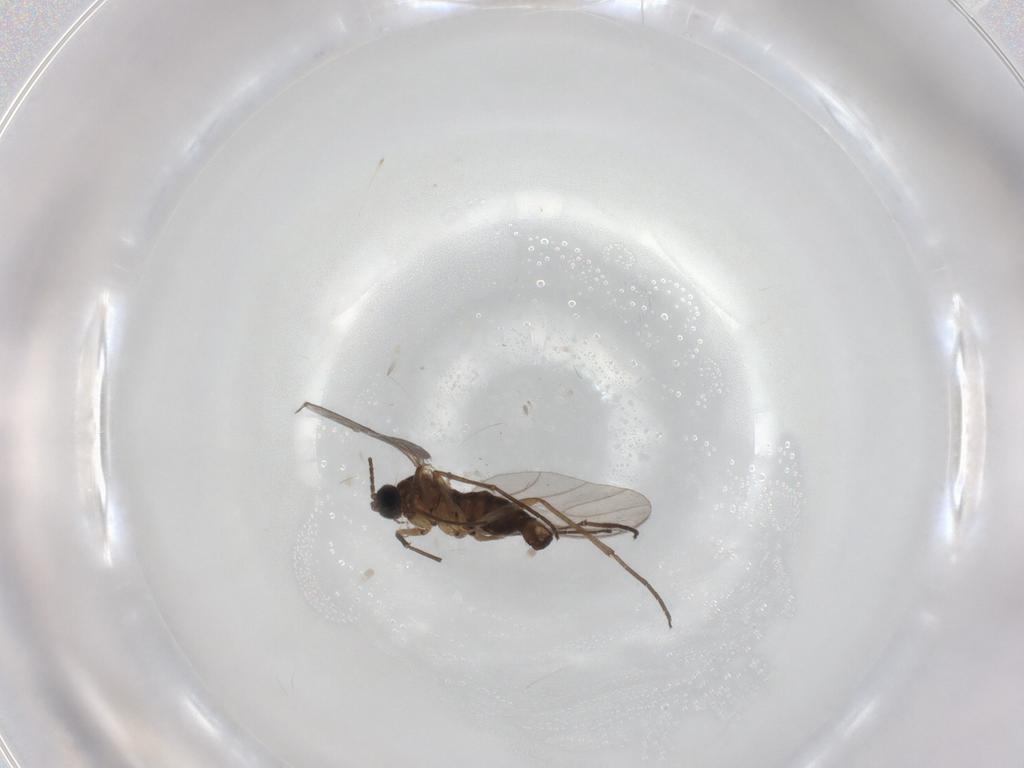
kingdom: Animalia
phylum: Arthropoda
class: Insecta
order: Diptera
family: Sciaridae
